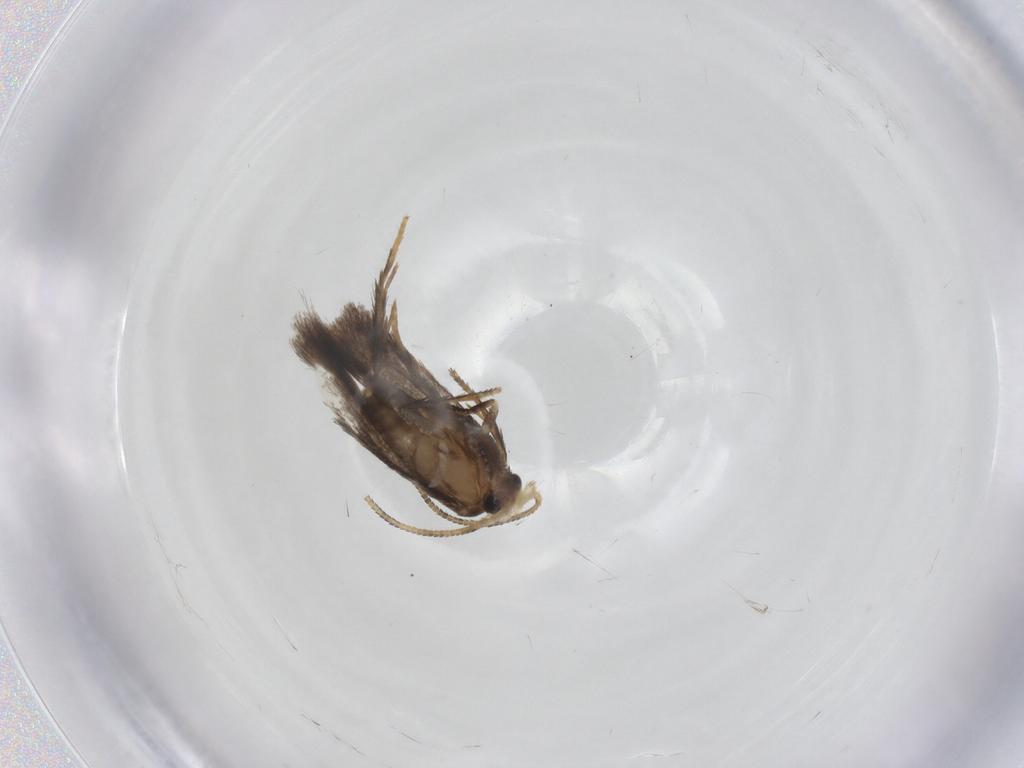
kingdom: Animalia
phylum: Arthropoda
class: Insecta
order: Lepidoptera
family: Nepticulidae
